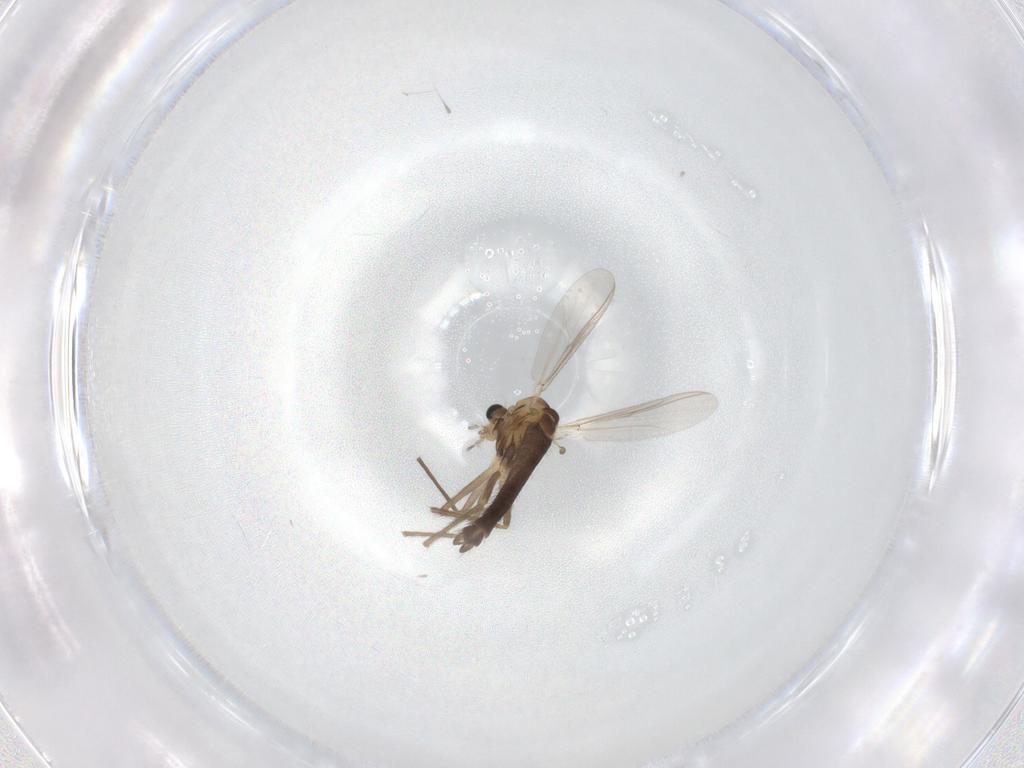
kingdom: Animalia
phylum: Arthropoda
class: Insecta
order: Diptera
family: Chironomidae
